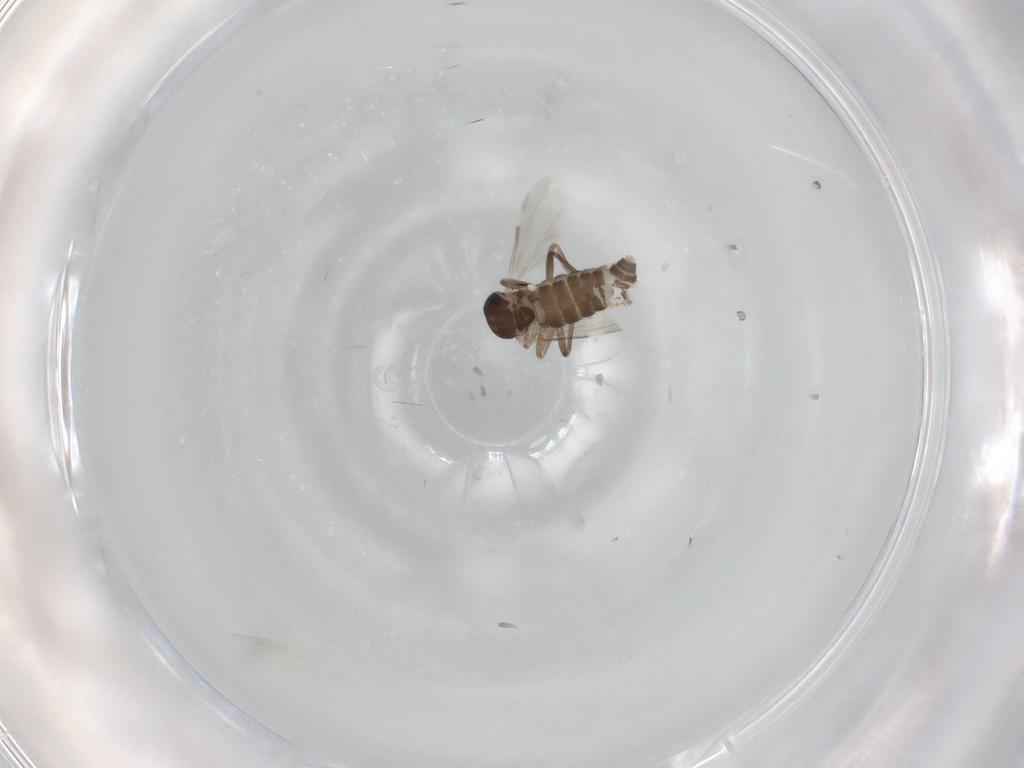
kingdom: Animalia
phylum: Arthropoda
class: Insecta
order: Diptera
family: Ceratopogonidae
